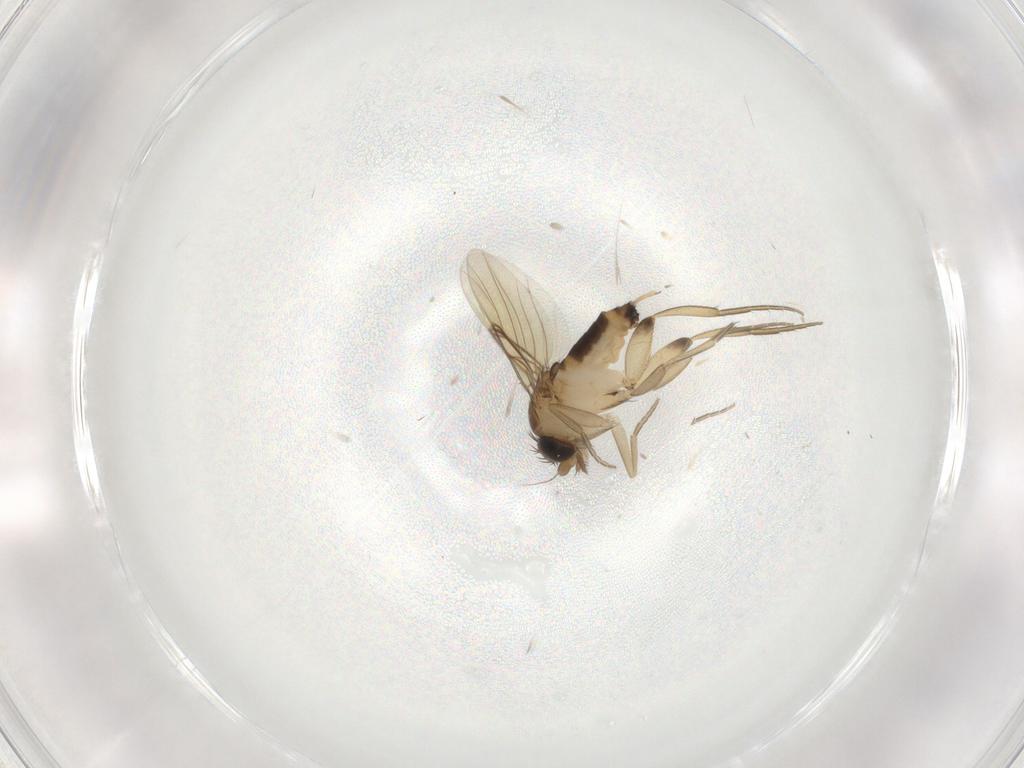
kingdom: Animalia
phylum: Arthropoda
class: Insecta
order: Diptera
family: Phoridae
